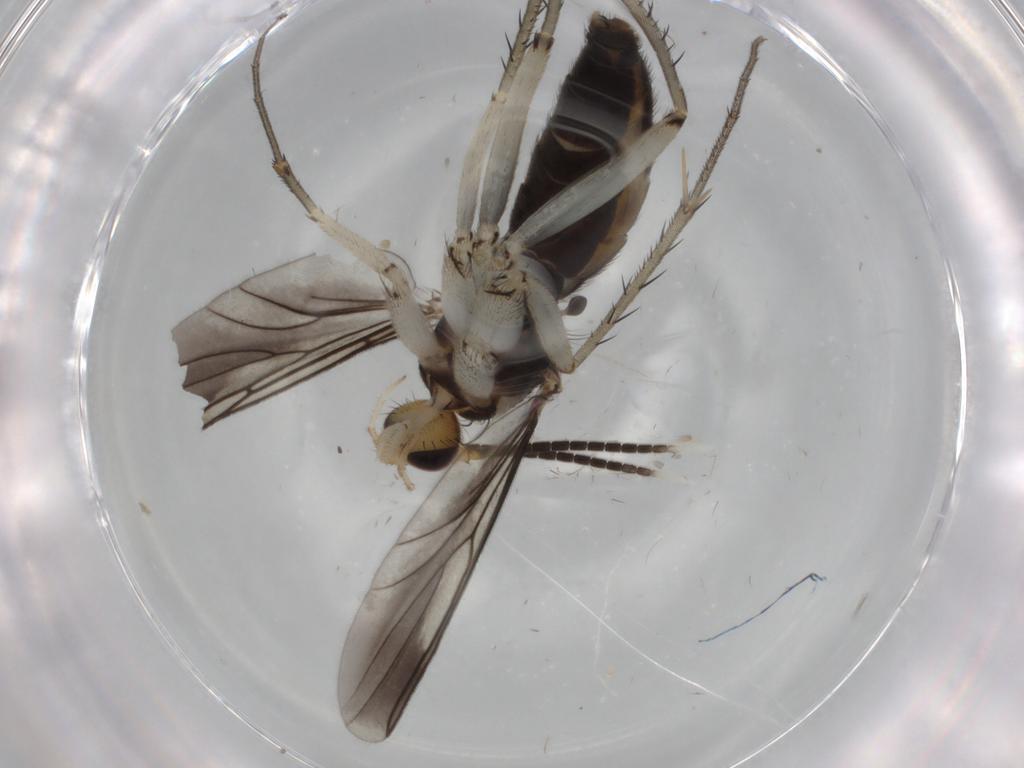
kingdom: Animalia
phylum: Arthropoda
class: Insecta
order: Diptera
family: Mycetophilidae
